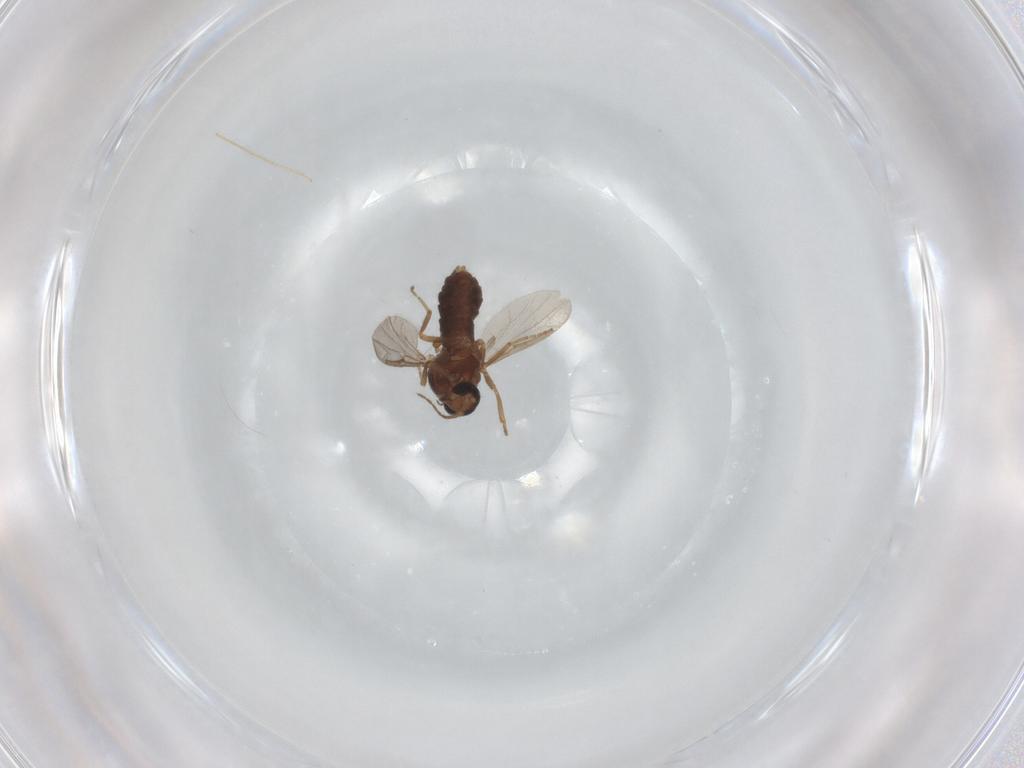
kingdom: Animalia
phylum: Arthropoda
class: Insecta
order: Diptera
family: Ceratopogonidae
